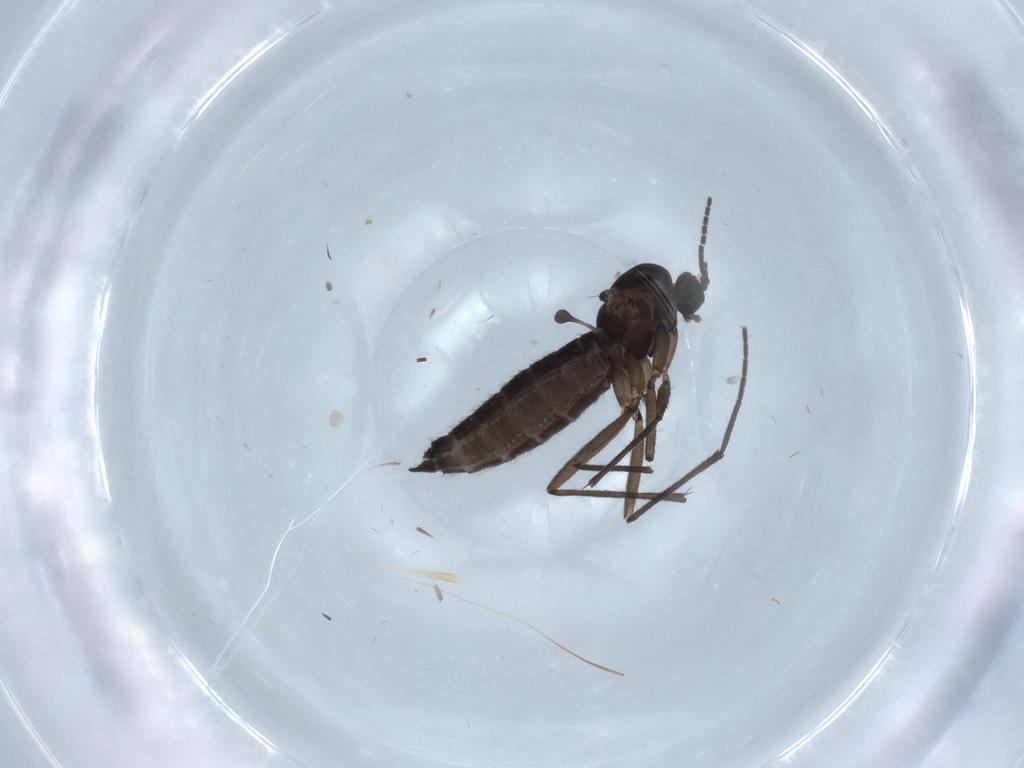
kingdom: Animalia
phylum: Arthropoda
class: Insecta
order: Diptera
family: Sciaridae
